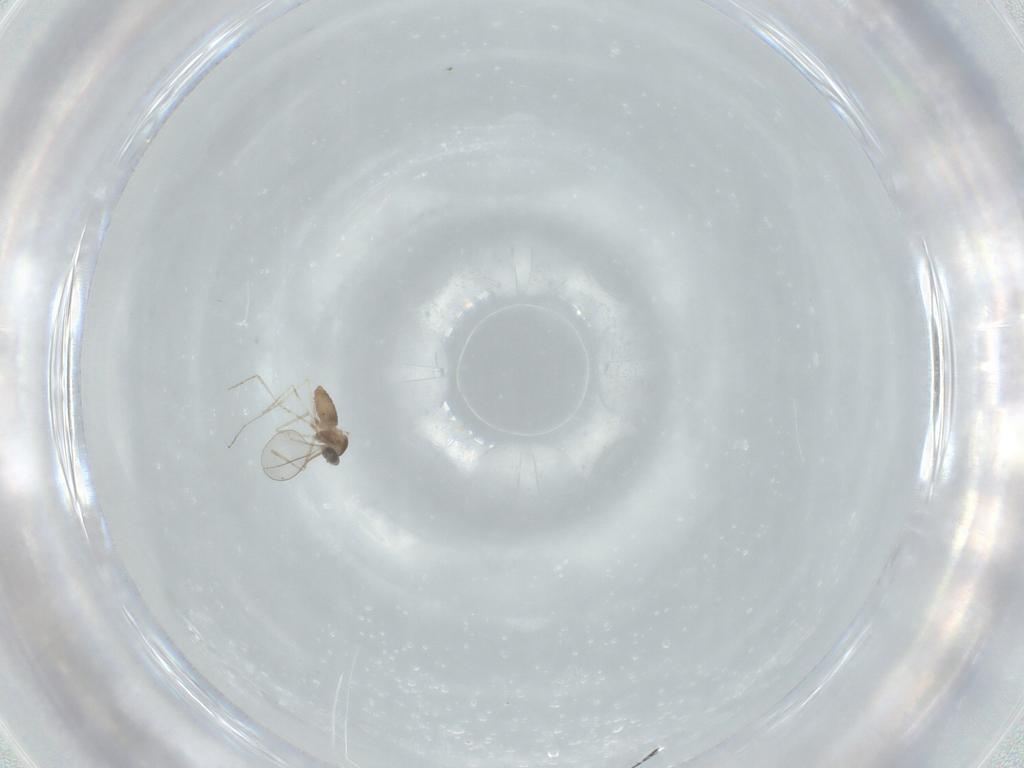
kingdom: Animalia
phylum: Arthropoda
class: Insecta
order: Diptera
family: Cecidomyiidae
